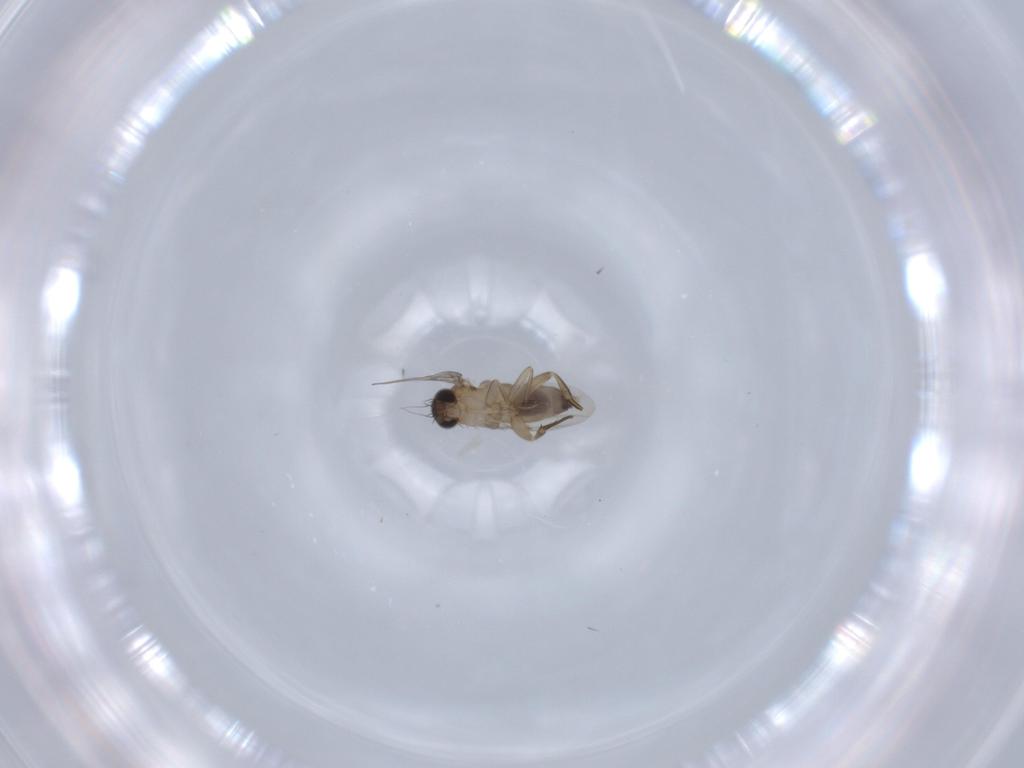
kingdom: Animalia
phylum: Arthropoda
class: Insecta
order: Diptera
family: Phoridae
